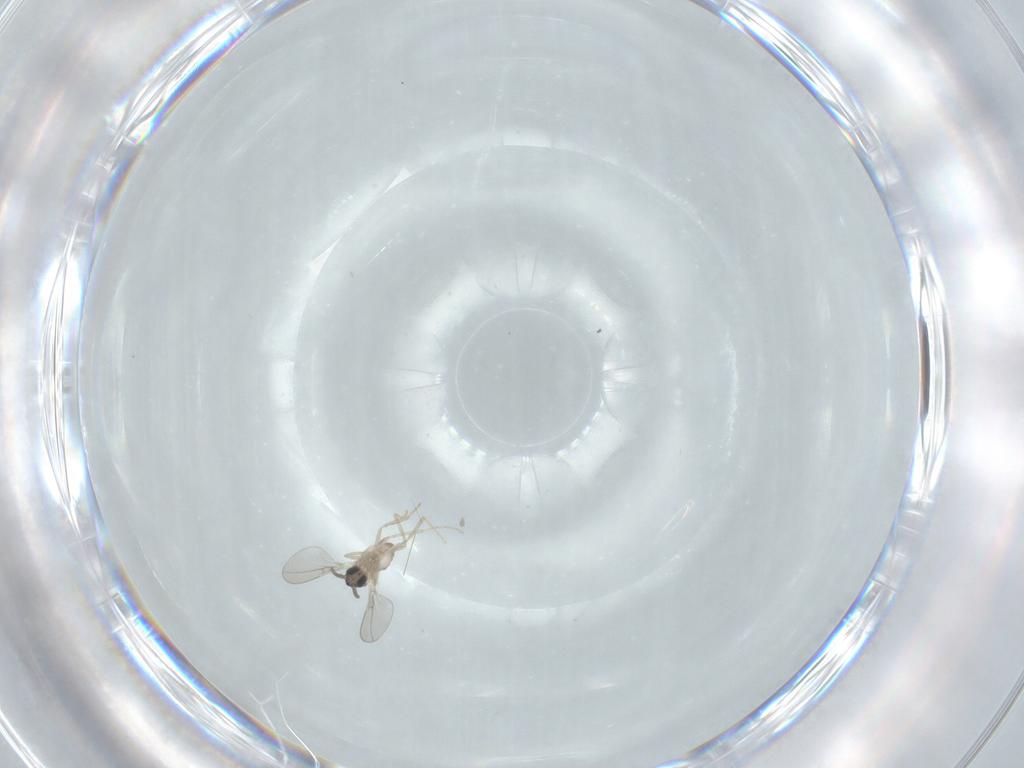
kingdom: Animalia
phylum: Arthropoda
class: Insecta
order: Diptera
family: Cecidomyiidae
